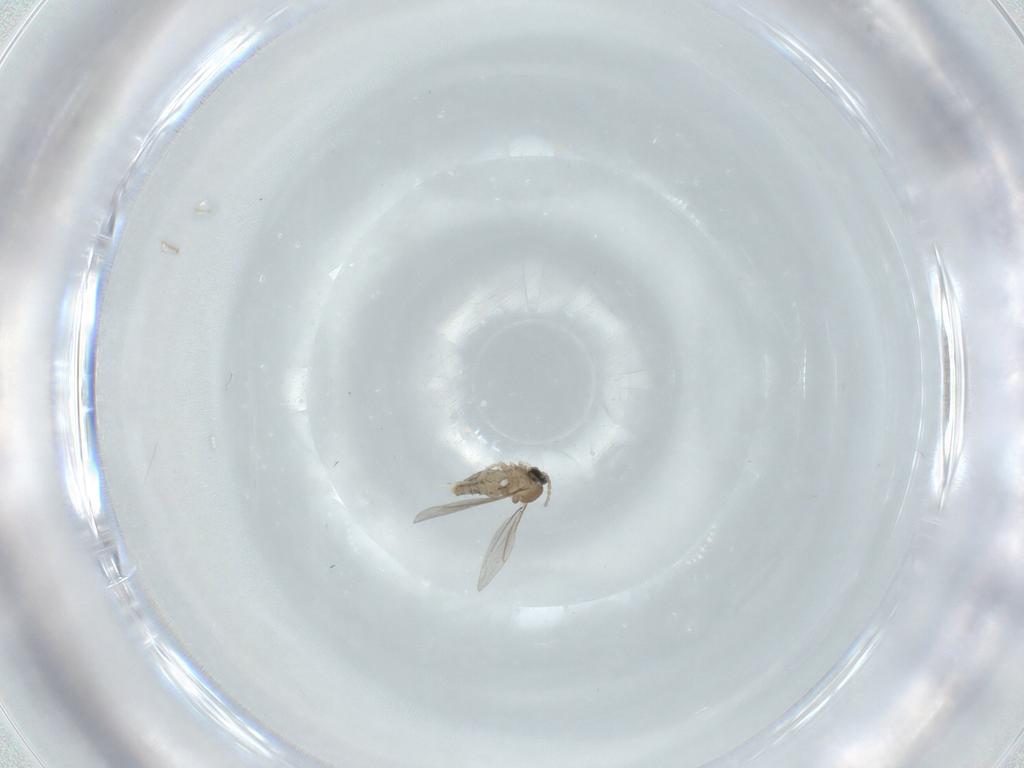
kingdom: Animalia
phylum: Arthropoda
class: Insecta
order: Diptera
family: Cecidomyiidae
